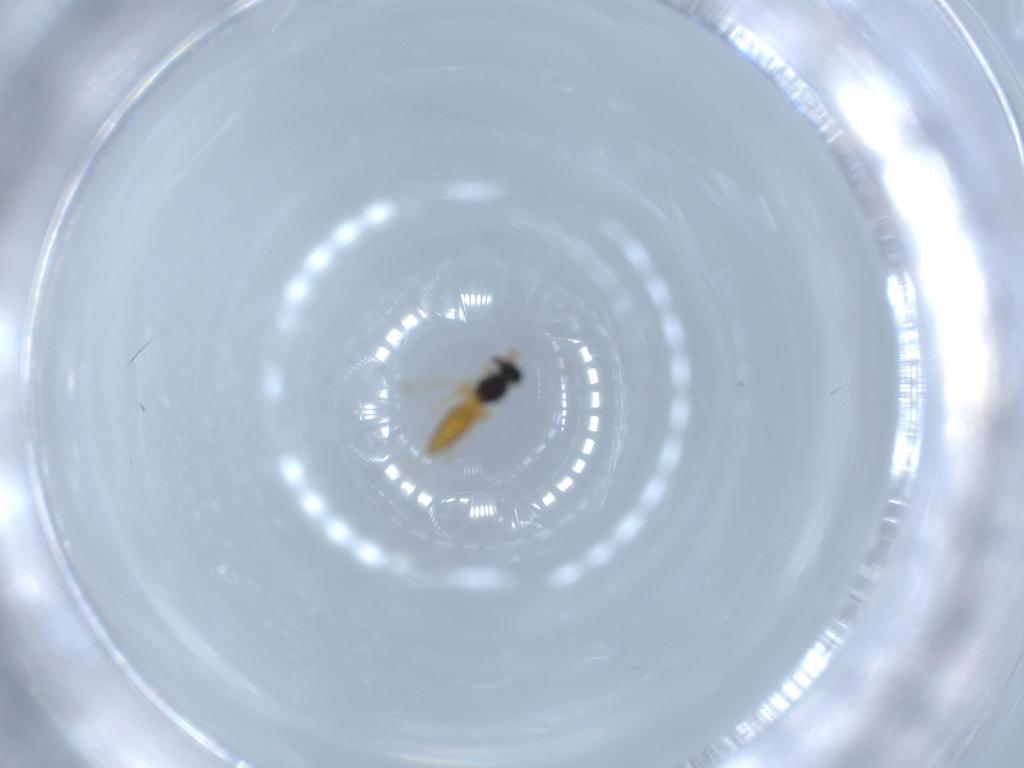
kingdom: Animalia
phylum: Arthropoda
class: Insecta
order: Hymenoptera
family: Scelionidae
